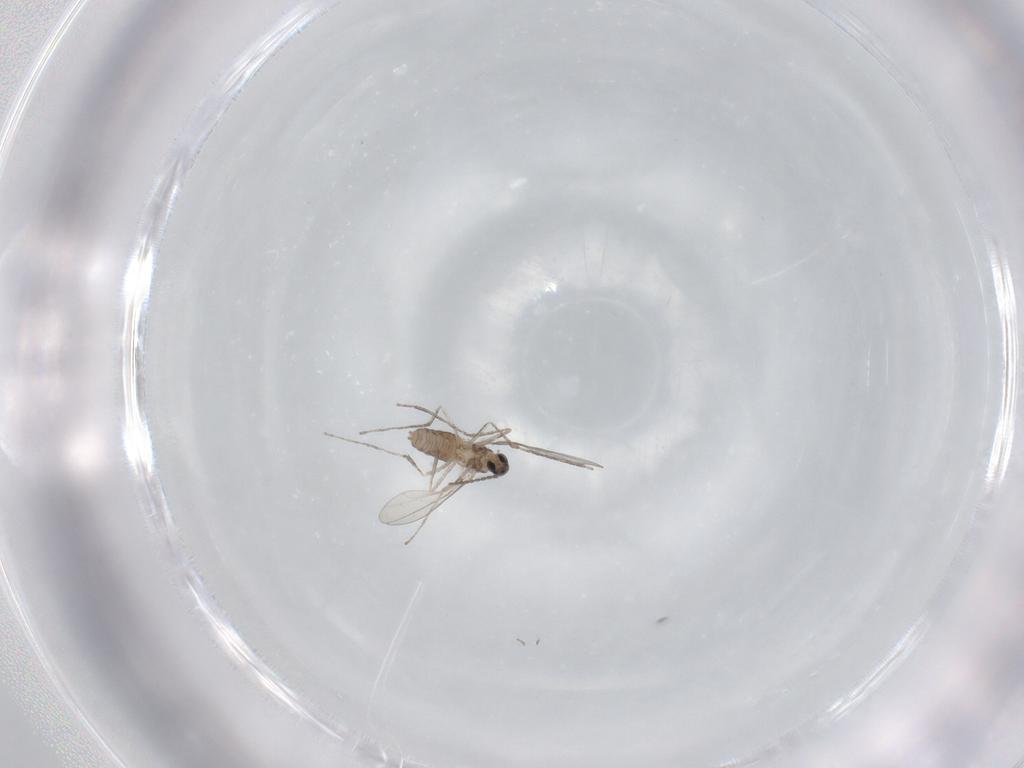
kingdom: Animalia
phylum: Arthropoda
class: Insecta
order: Diptera
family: Cecidomyiidae
